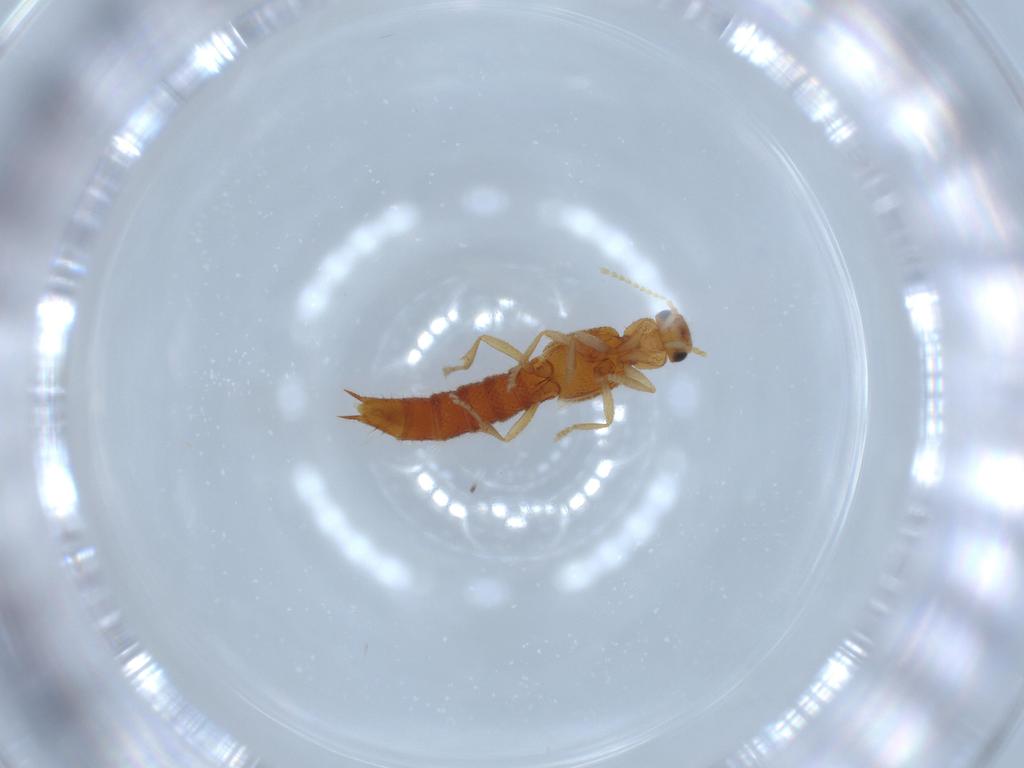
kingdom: Animalia
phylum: Arthropoda
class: Insecta
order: Coleoptera
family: Staphylinidae
